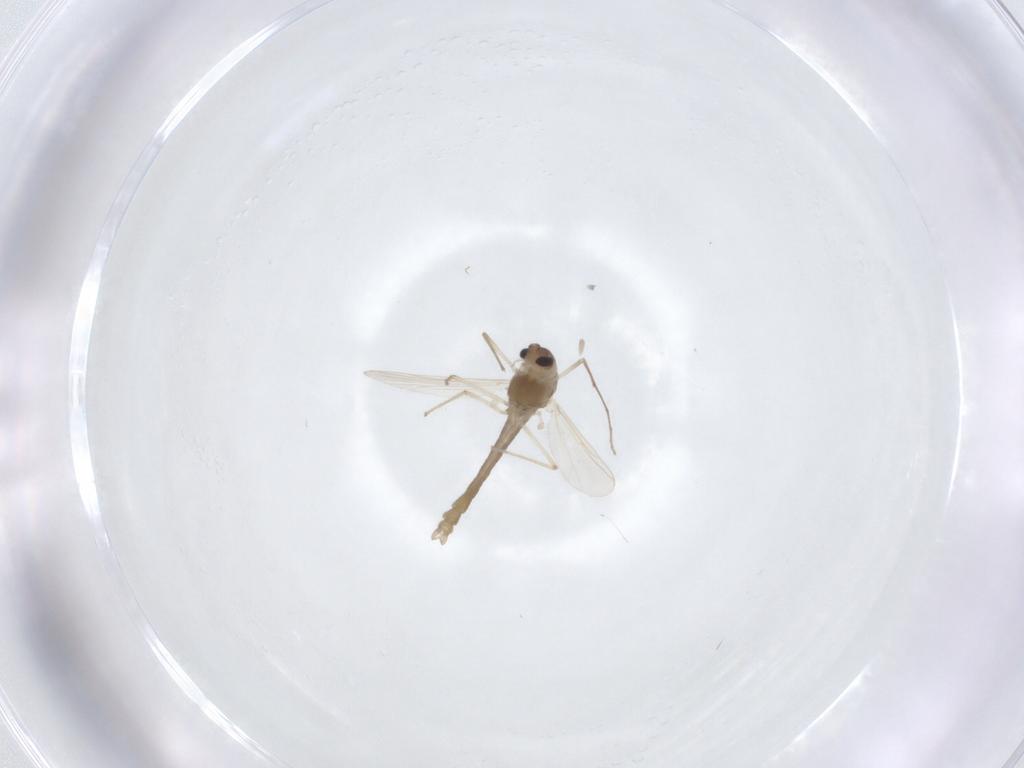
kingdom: Animalia
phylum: Arthropoda
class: Insecta
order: Diptera
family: Chironomidae
